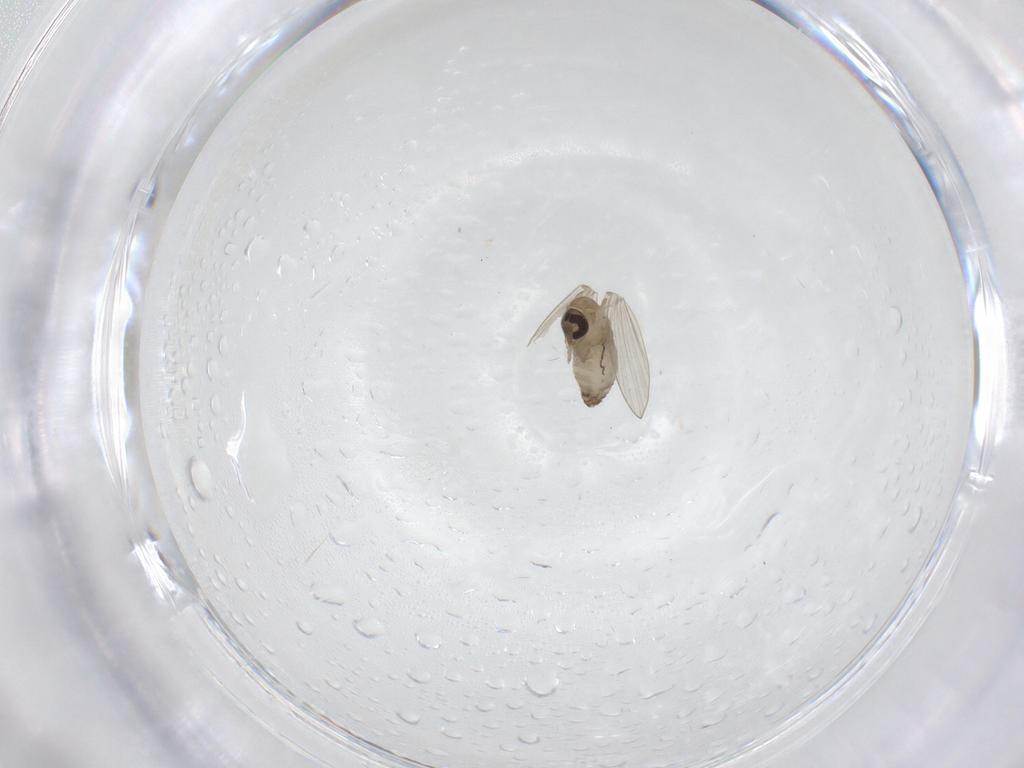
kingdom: Animalia
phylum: Arthropoda
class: Insecta
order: Diptera
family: Psychodidae
